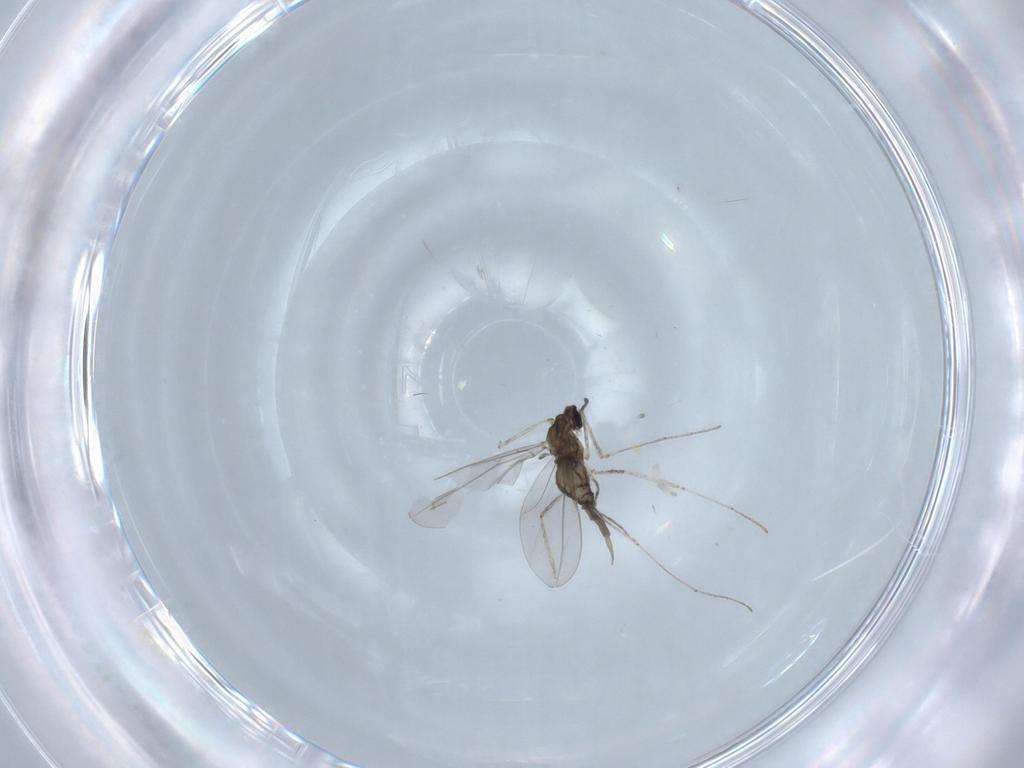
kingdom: Animalia
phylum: Arthropoda
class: Insecta
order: Diptera
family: Cecidomyiidae
